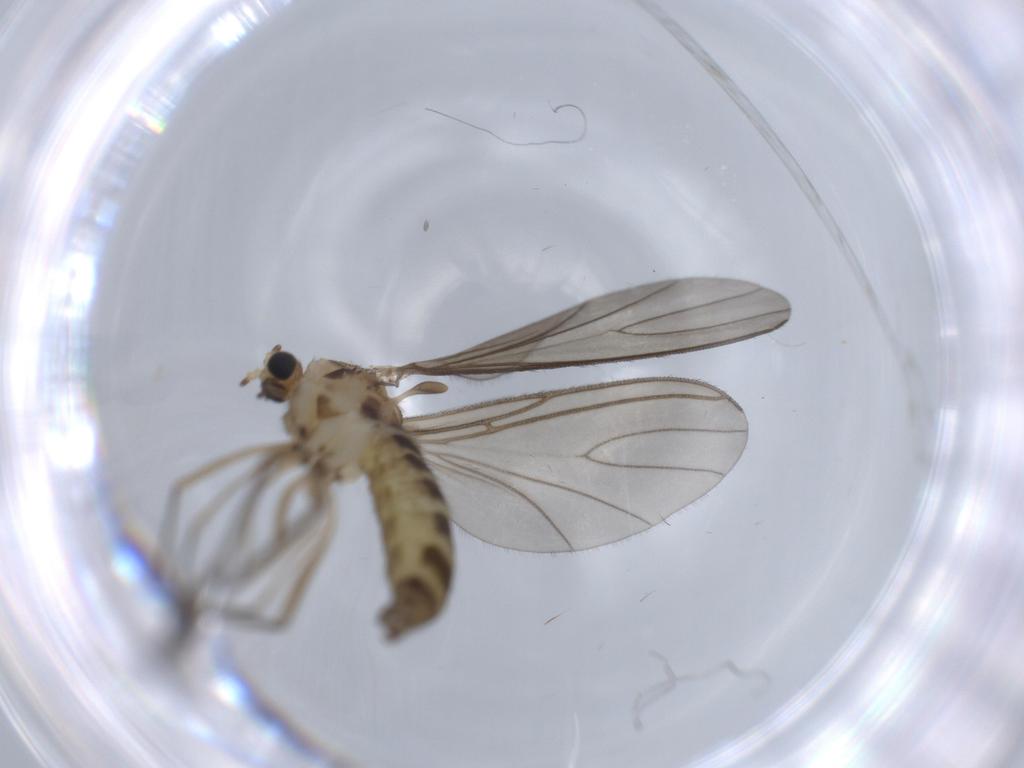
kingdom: Animalia
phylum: Arthropoda
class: Insecta
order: Diptera
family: Sciaridae
